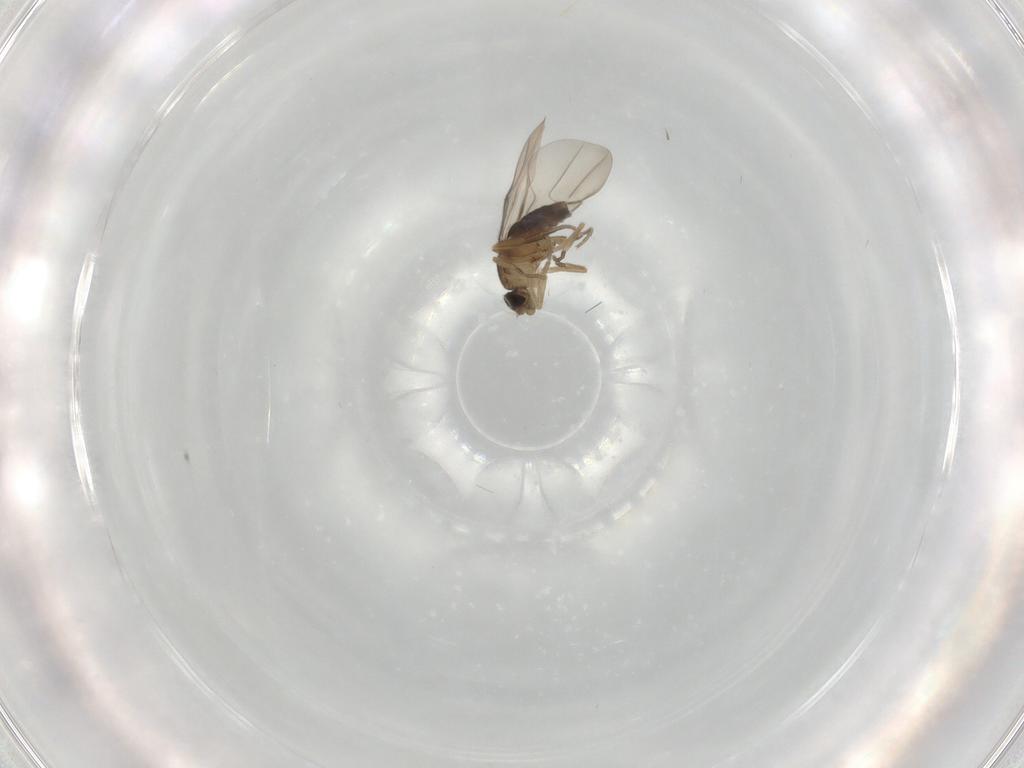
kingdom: Animalia
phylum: Arthropoda
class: Insecta
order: Diptera
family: Phoridae
